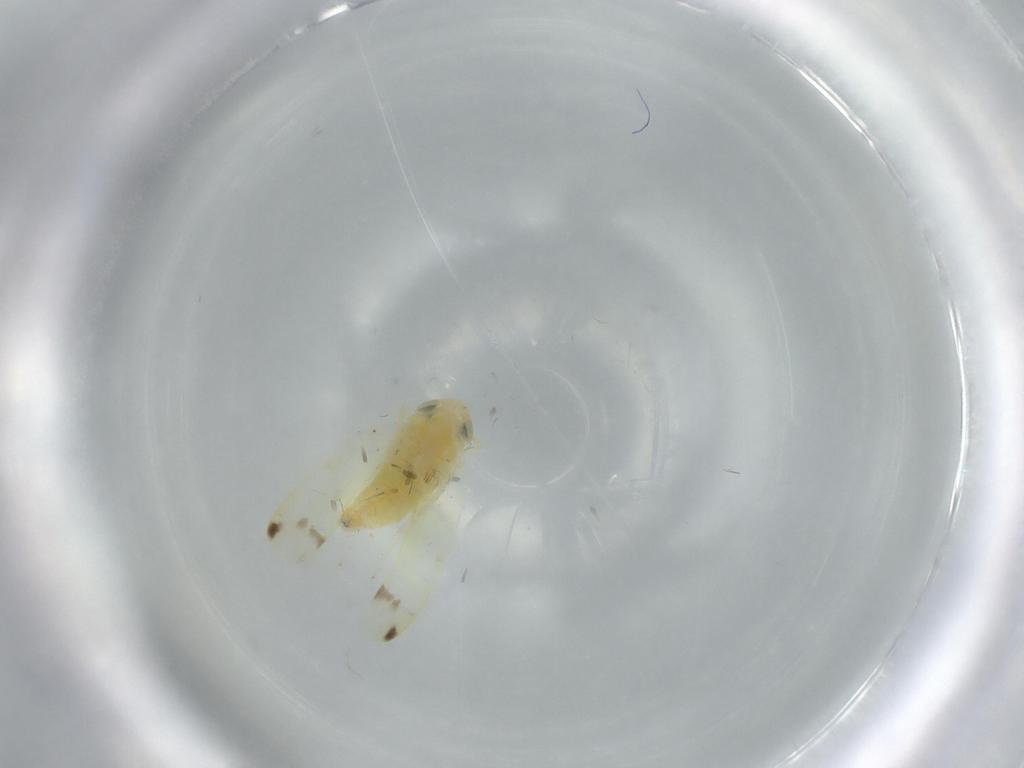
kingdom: Animalia
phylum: Arthropoda
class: Insecta
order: Hemiptera
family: Cicadellidae
